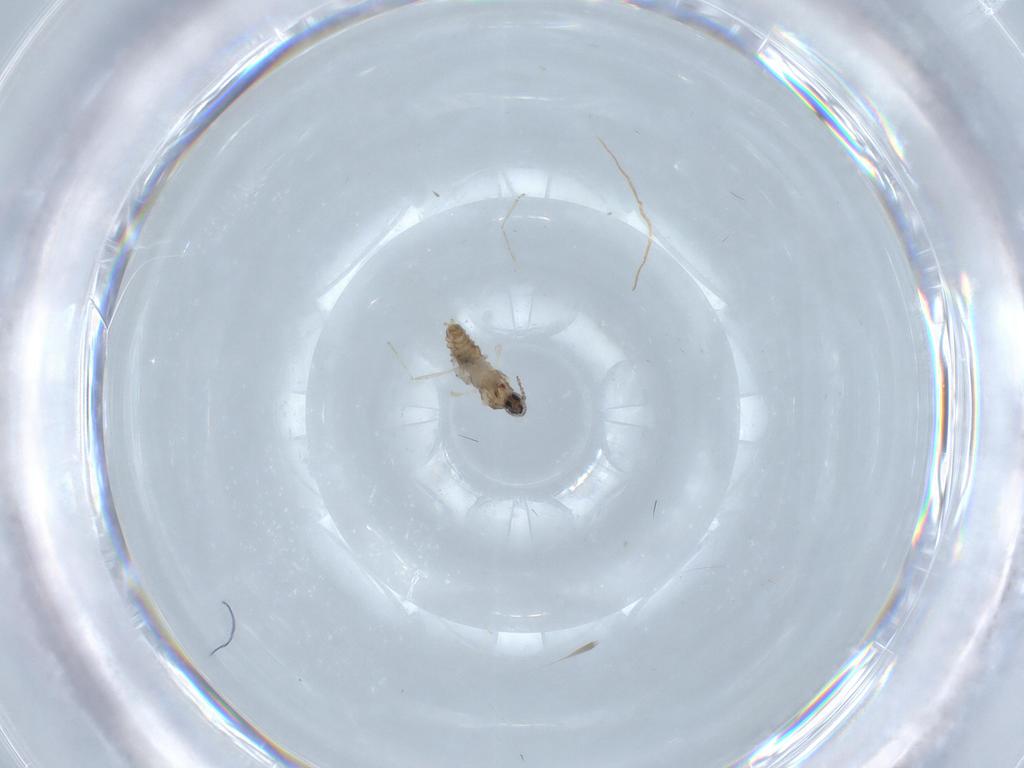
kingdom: Animalia
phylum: Arthropoda
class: Insecta
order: Diptera
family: Cecidomyiidae
